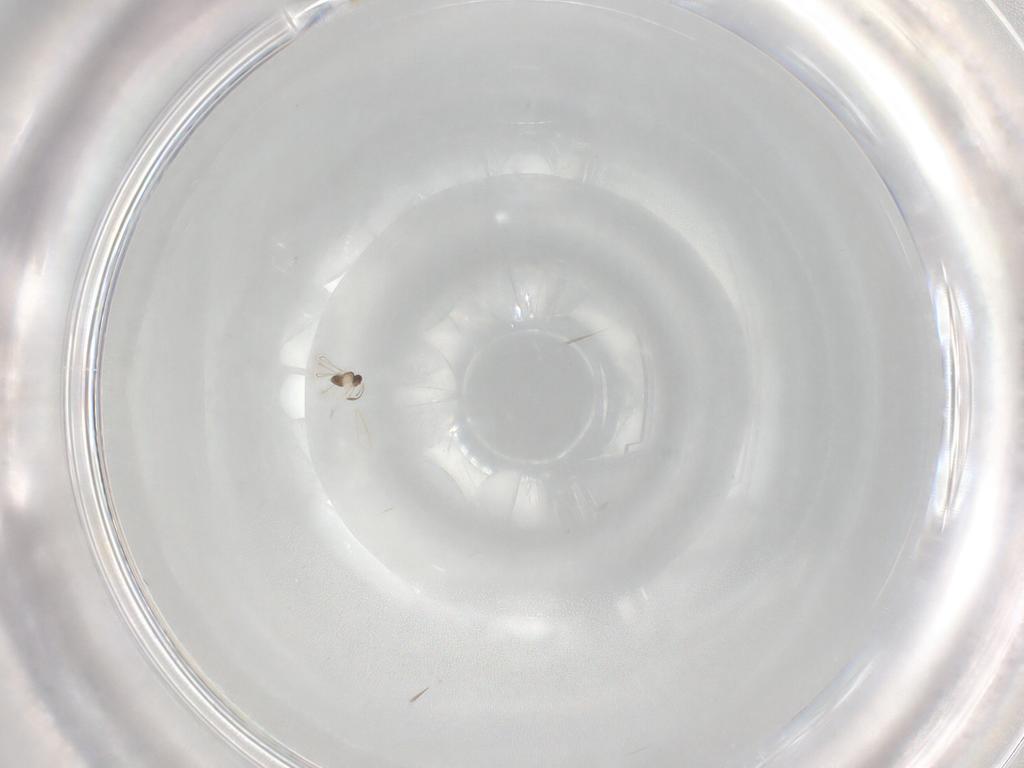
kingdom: Animalia
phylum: Arthropoda
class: Insecta
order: Hymenoptera
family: Mymaridae
